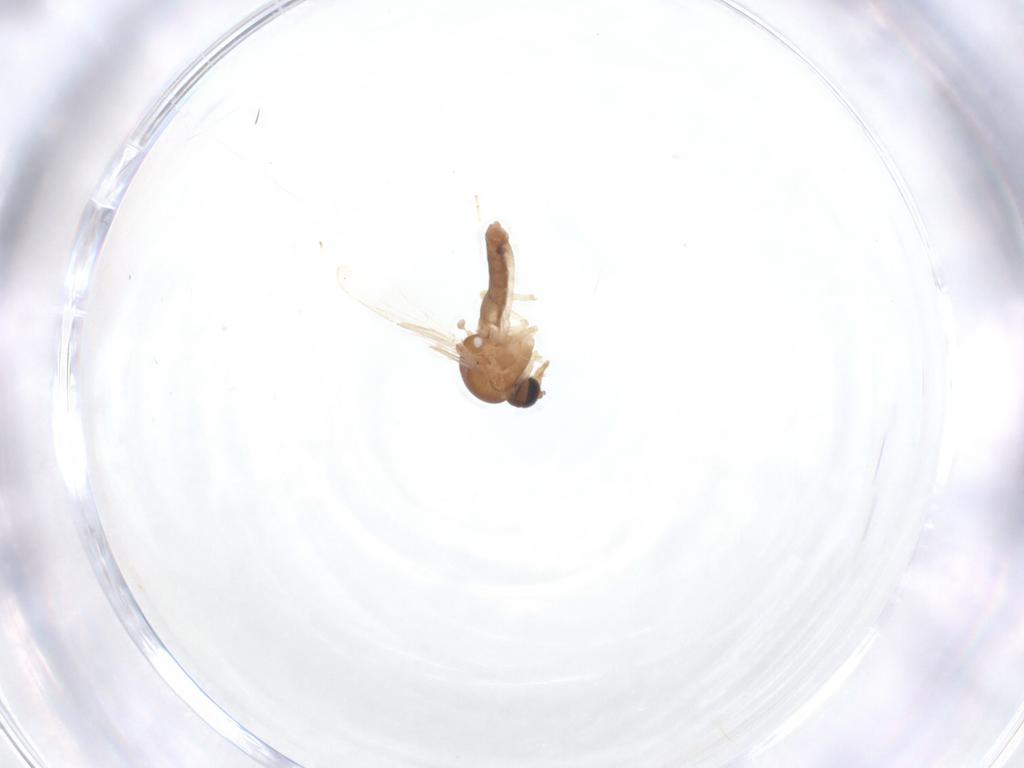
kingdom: Animalia
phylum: Arthropoda
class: Insecta
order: Diptera
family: Ceratopogonidae
